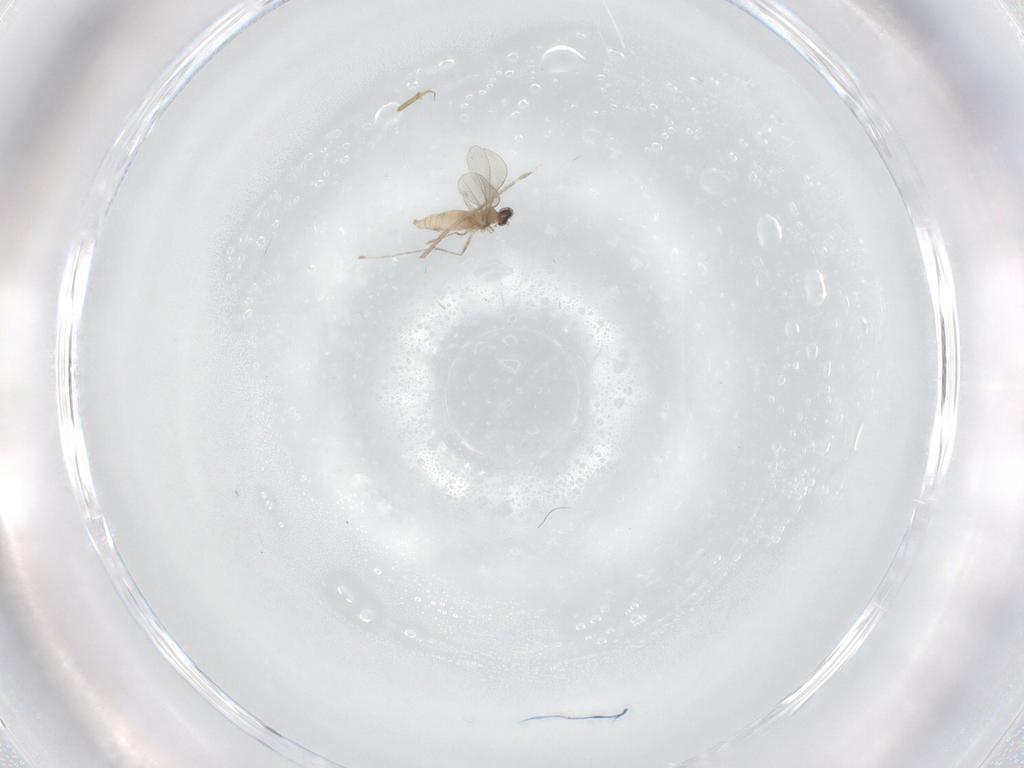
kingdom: Animalia
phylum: Arthropoda
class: Insecta
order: Diptera
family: Cecidomyiidae
